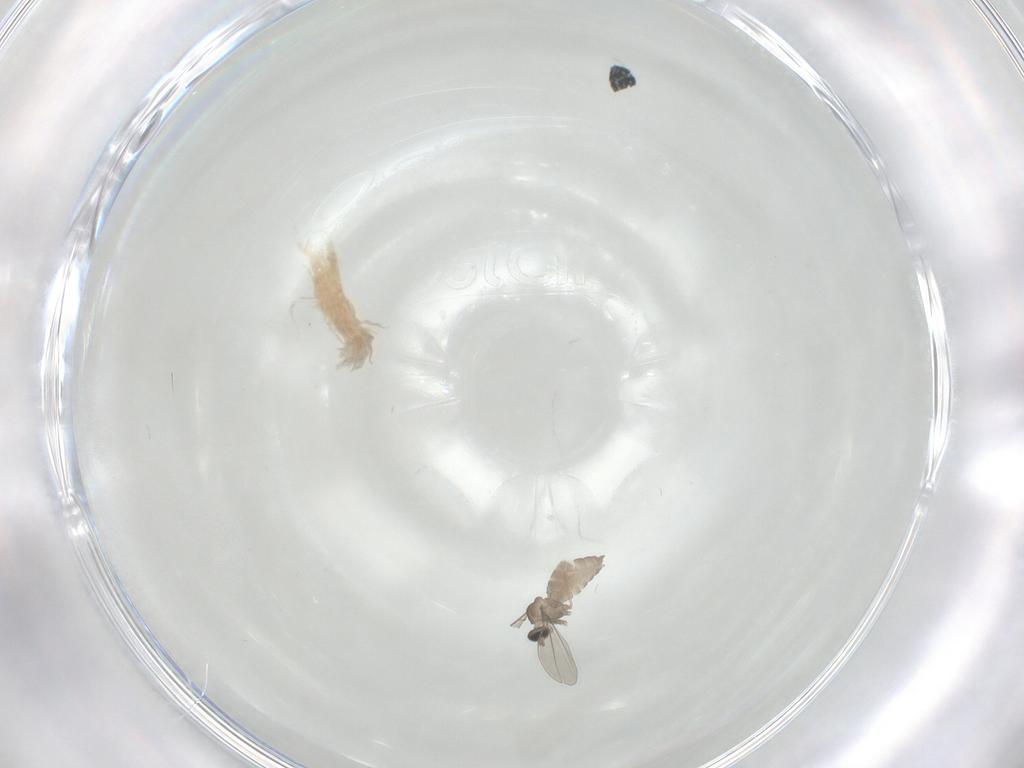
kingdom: Animalia
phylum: Arthropoda
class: Insecta
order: Diptera
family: Cecidomyiidae
